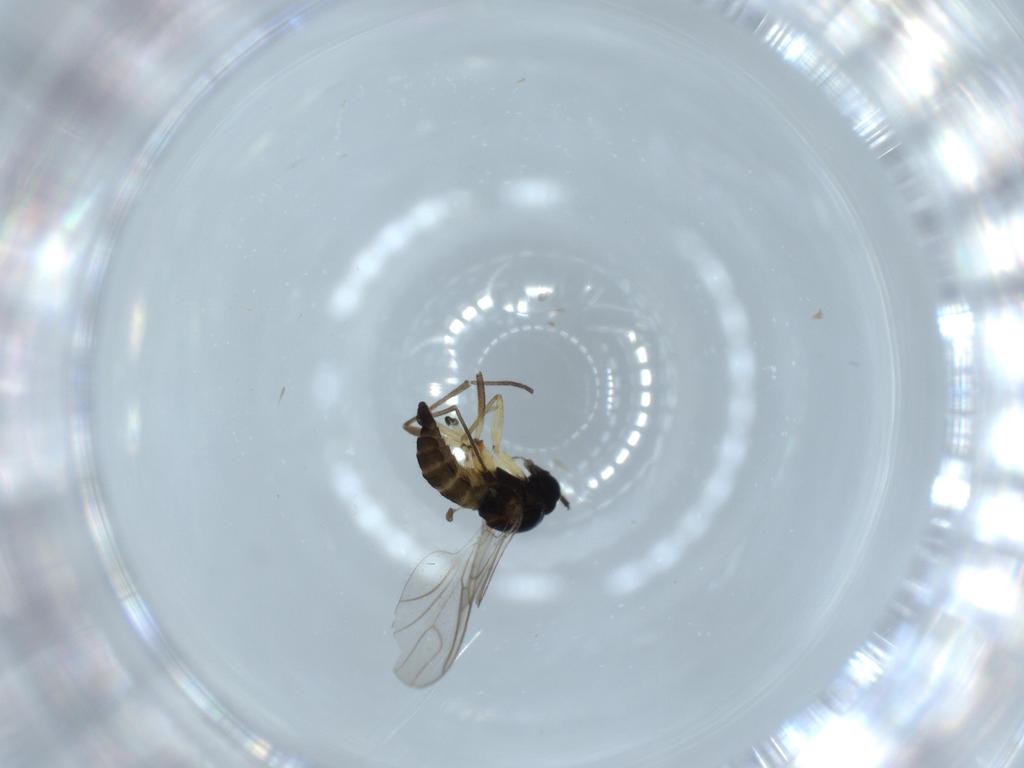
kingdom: Animalia
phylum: Arthropoda
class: Insecta
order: Diptera
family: Sciaridae
